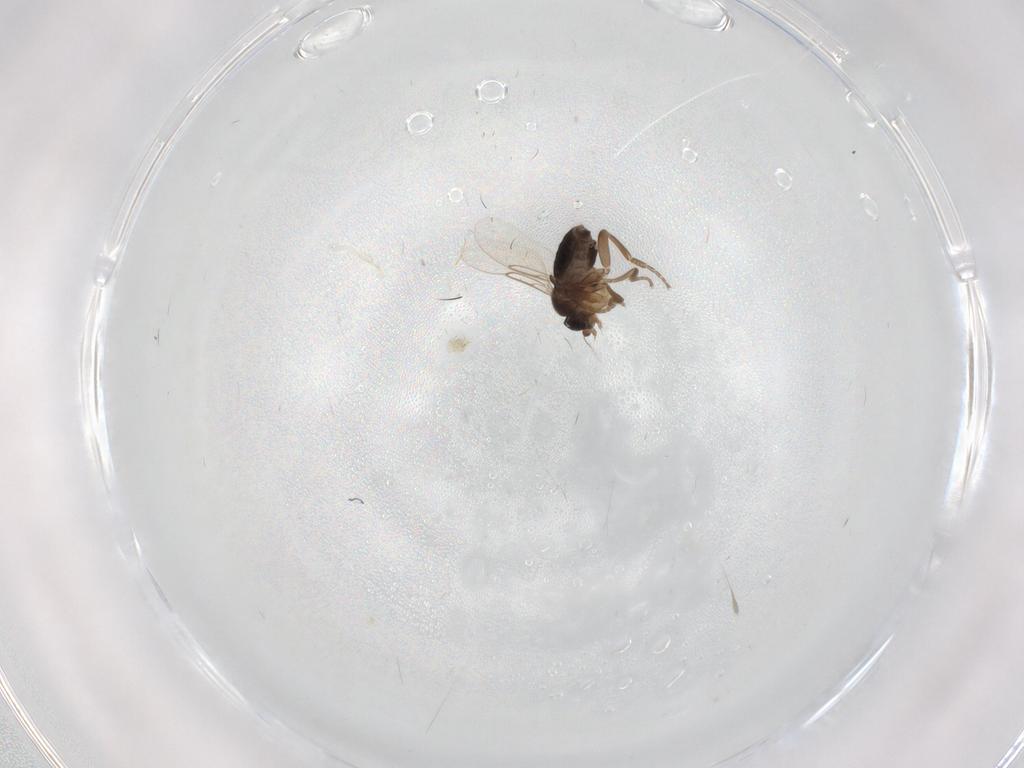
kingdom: Animalia
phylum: Arthropoda
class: Insecta
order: Diptera
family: Phoridae
